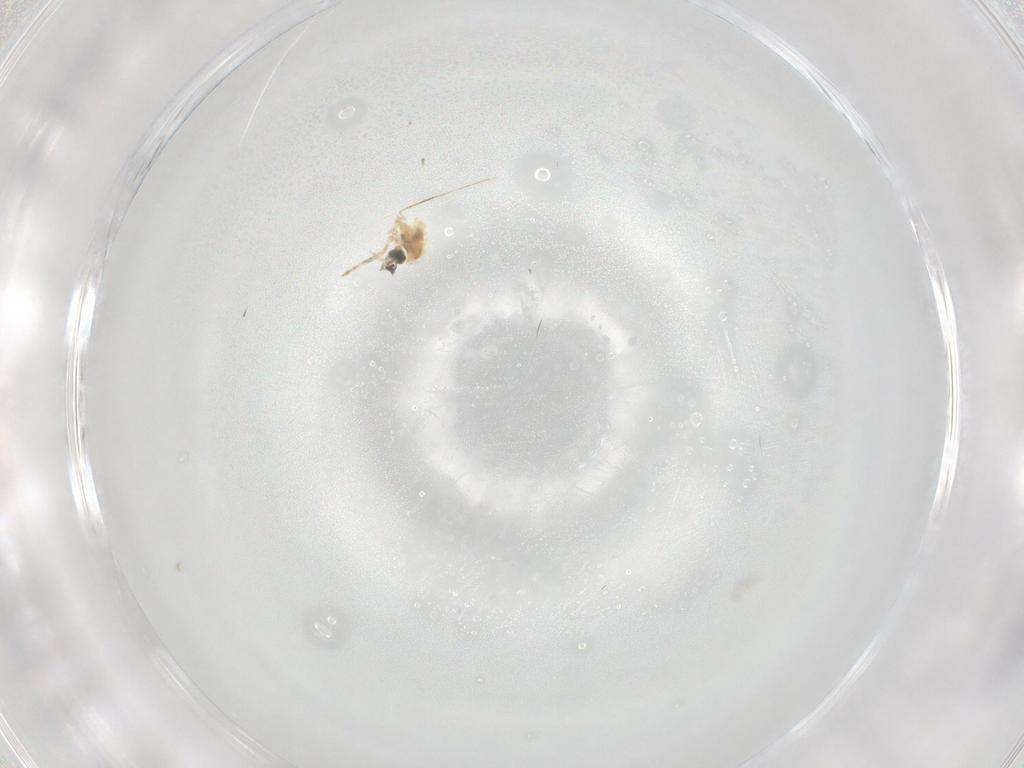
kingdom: Animalia
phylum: Arthropoda
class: Insecta
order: Diptera
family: Cecidomyiidae
